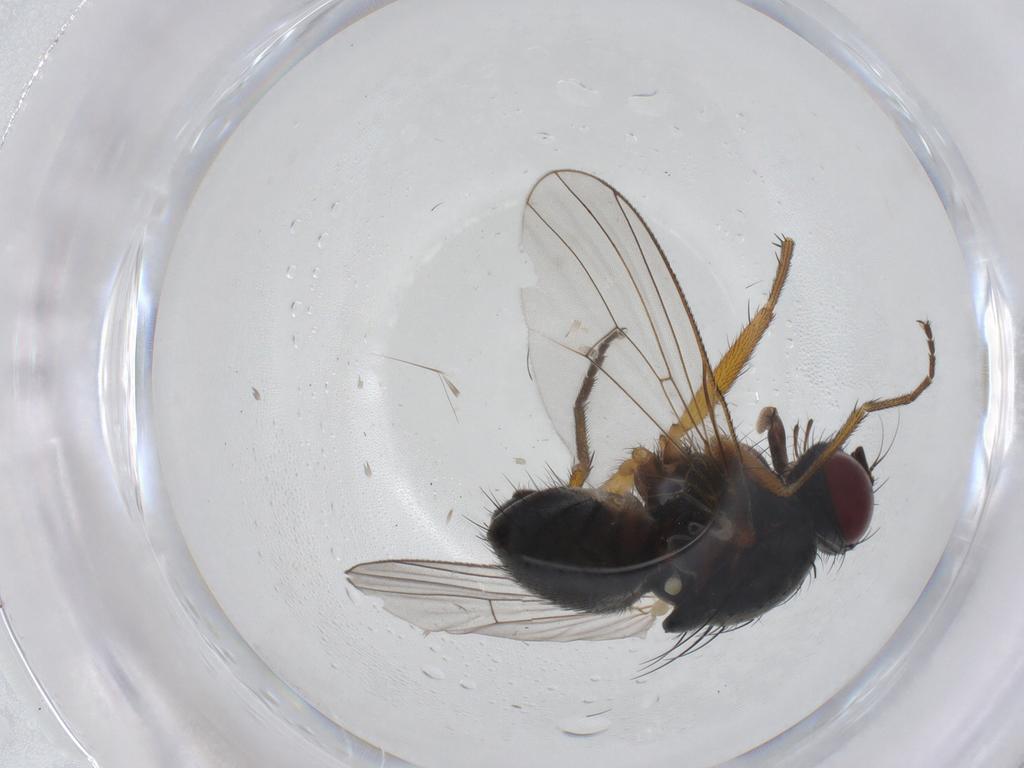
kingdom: Animalia
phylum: Arthropoda
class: Insecta
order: Diptera
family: Muscidae
